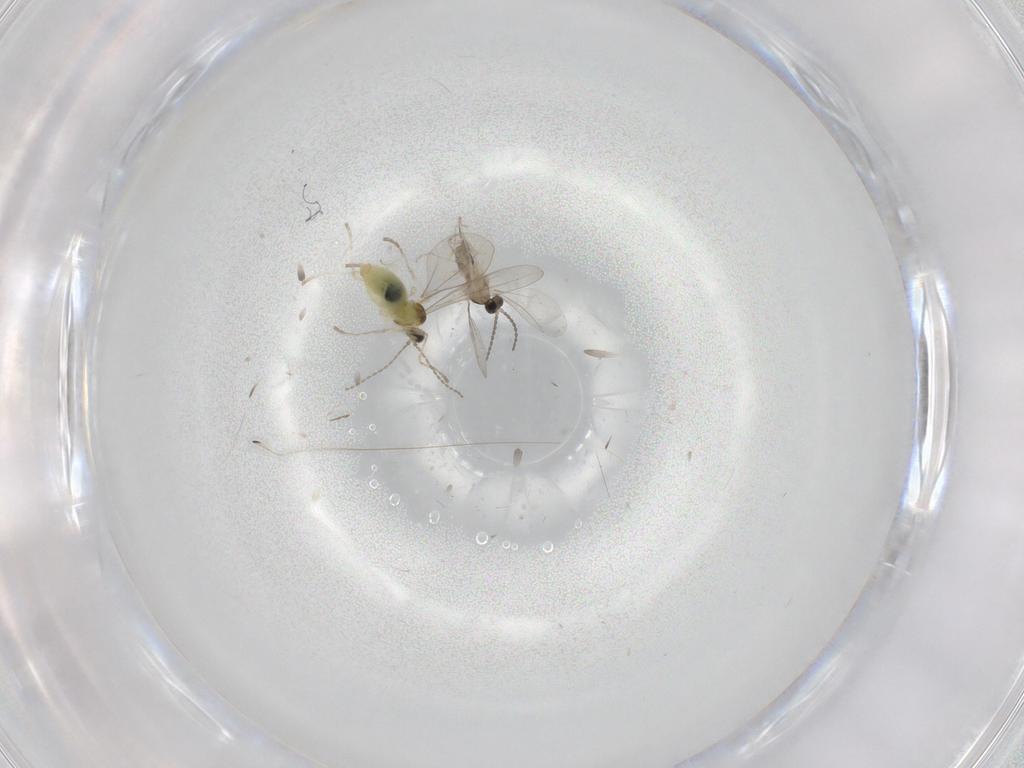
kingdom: Animalia
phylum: Arthropoda
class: Insecta
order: Diptera
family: Cecidomyiidae
